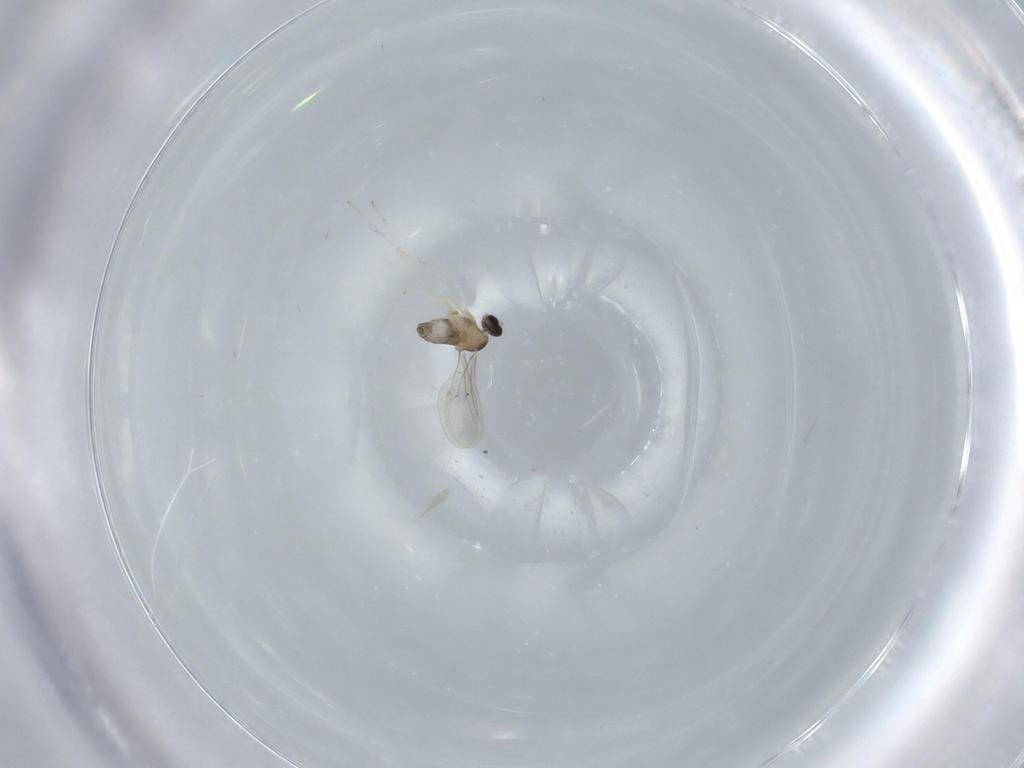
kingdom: Animalia
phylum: Arthropoda
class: Insecta
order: Diptera
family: Cecidomyiidae
